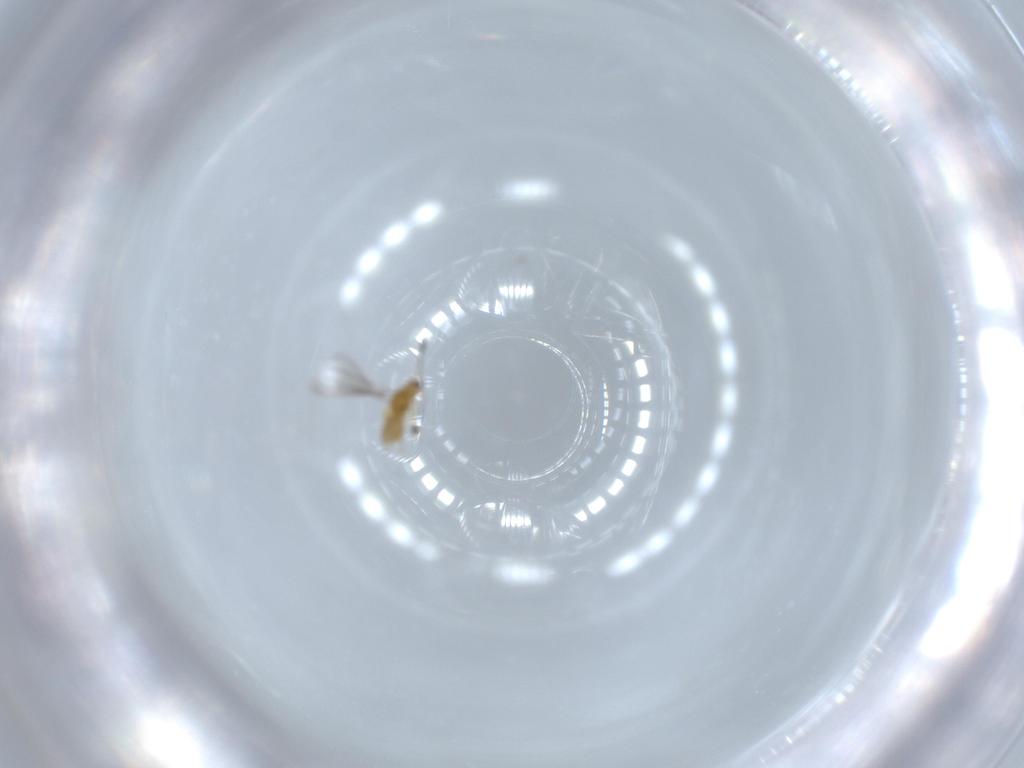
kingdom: Animalia
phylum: Arthropoda
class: Insecta
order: Hymenoptera
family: Mymaridae
